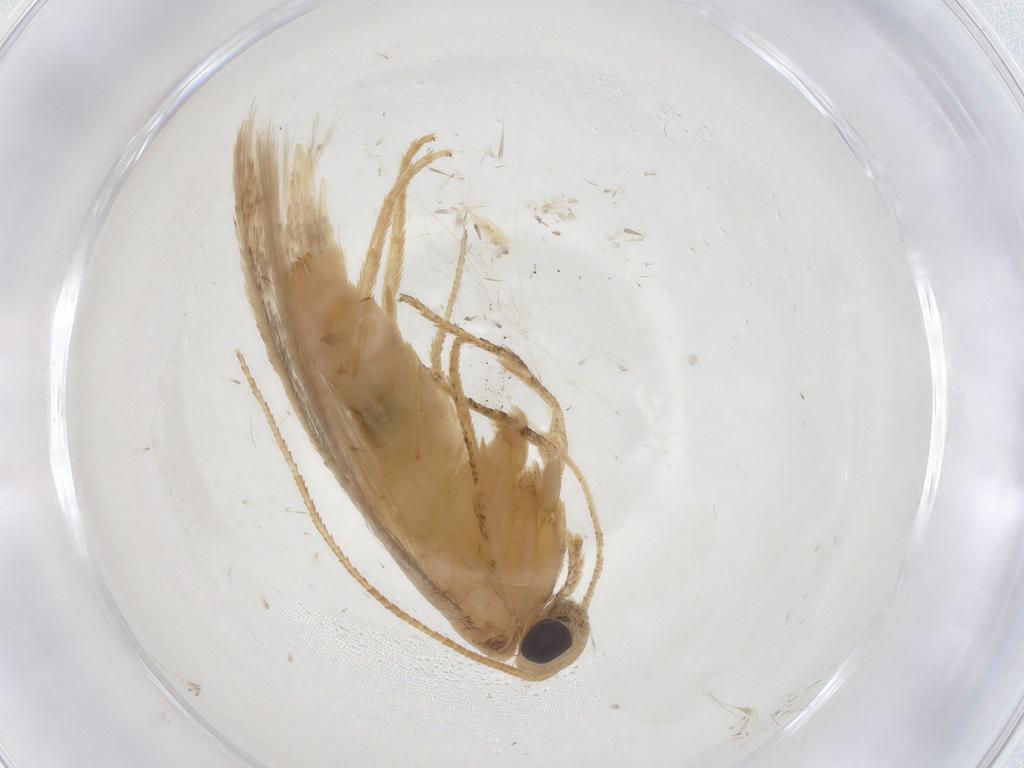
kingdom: Animalia
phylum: Arthropoda
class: Insecta
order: Lepidoptera
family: Gelechiidae
